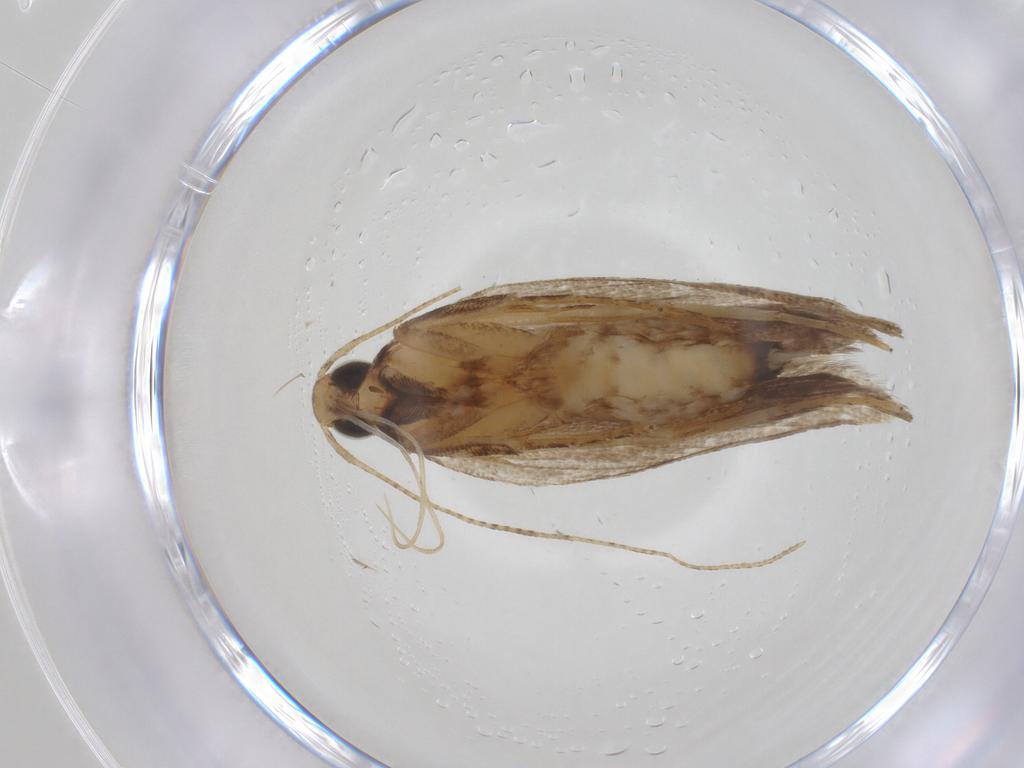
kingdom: Animalia
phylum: Arthropoda
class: Insecta
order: Lepidoptera
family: Gelechiidae
